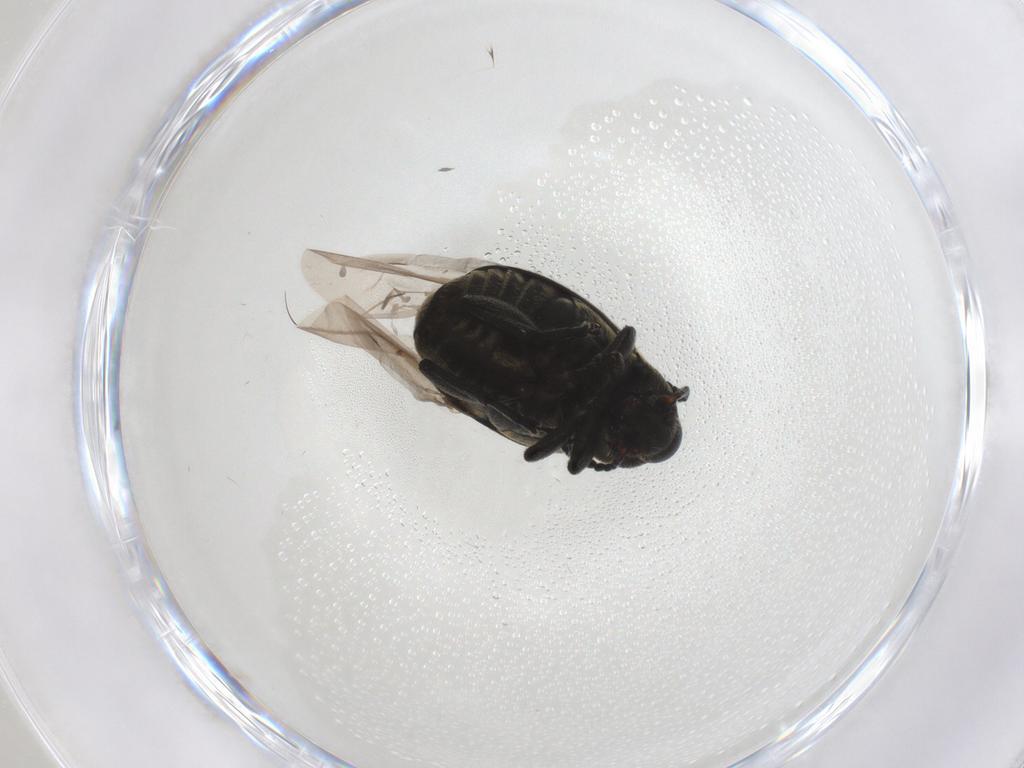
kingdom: Animalia
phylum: Arthropoda
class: Insecta
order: Coleoptera
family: Chrysomelidae
